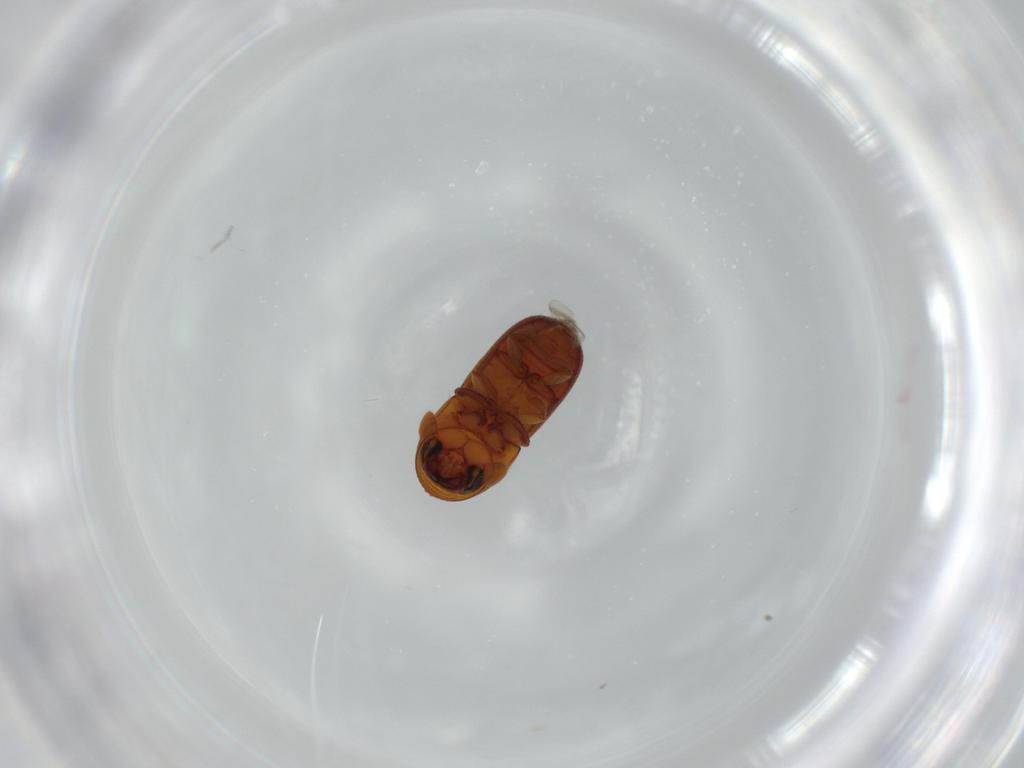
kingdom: Animalia
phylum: Arthropoda
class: Insecta
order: Coleoptera
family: Curculionidae
